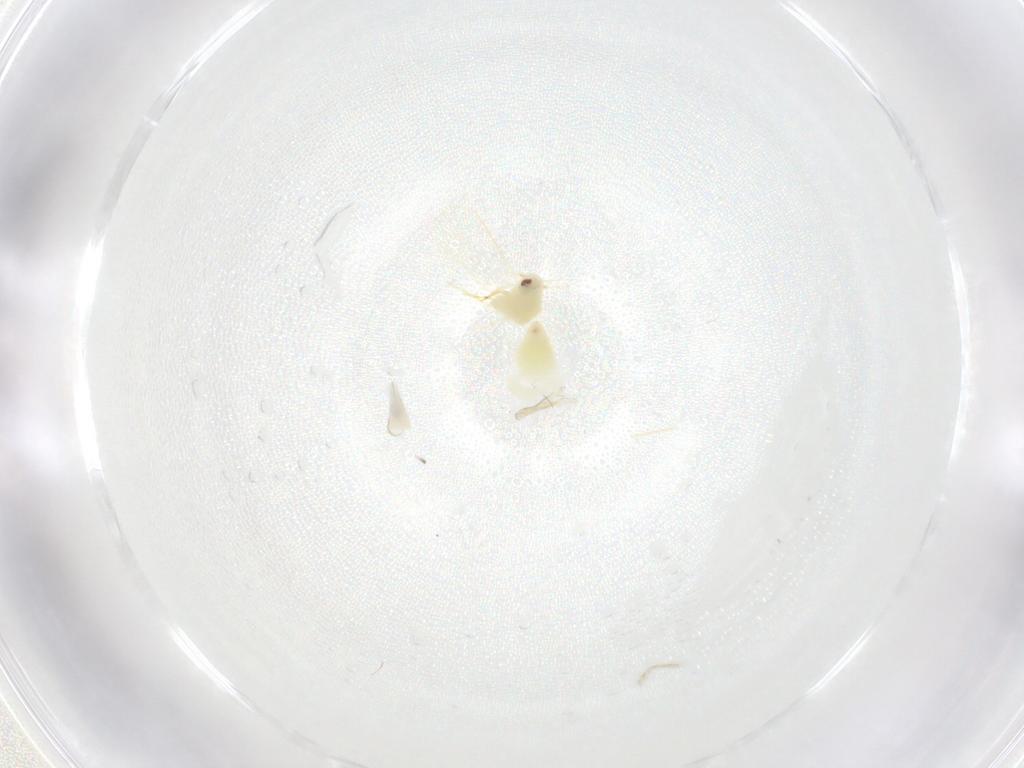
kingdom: Animalia
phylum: Arthropoda
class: Insecta
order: Hemiptera
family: Aleyrodidae
